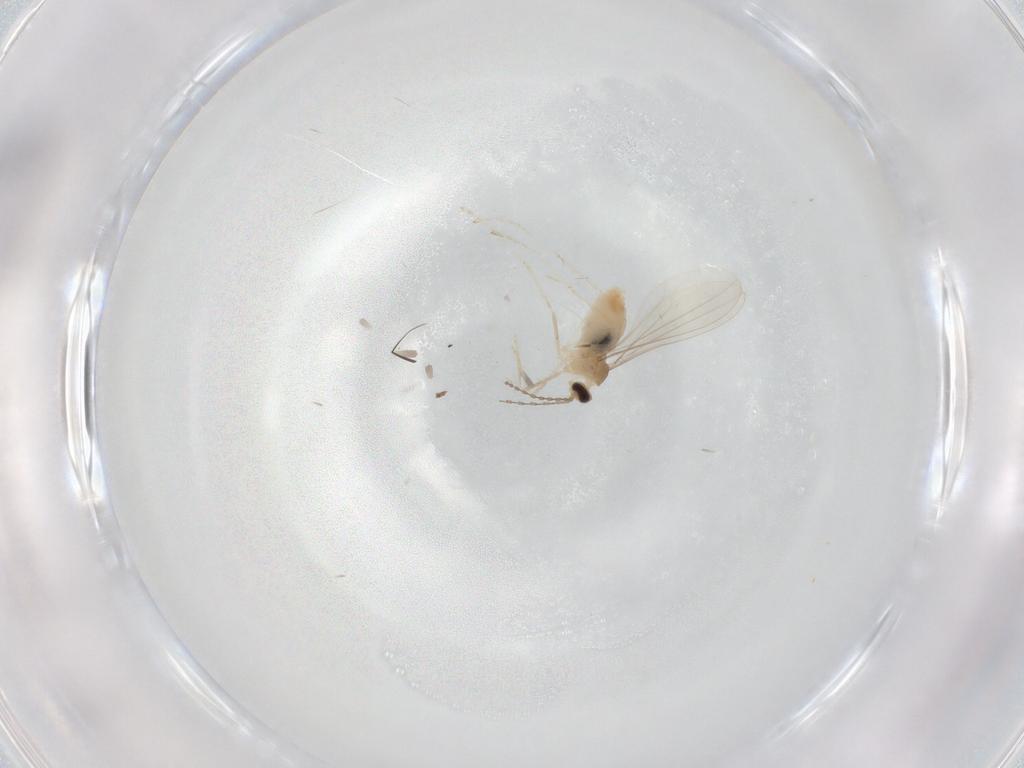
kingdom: Animalia
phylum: Arthropoda
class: Insecta
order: Diptera
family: Cecidomyiidae
